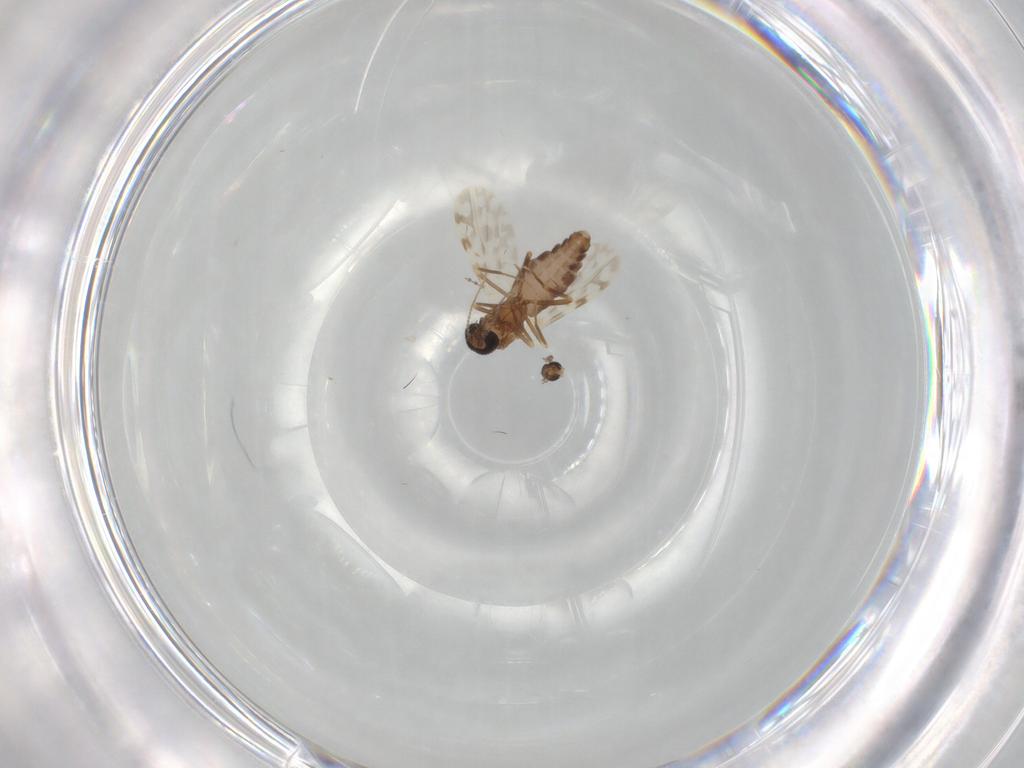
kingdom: Animalia
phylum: Arthropoda
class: Insecta
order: Diptera
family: Ceratopogonidae
